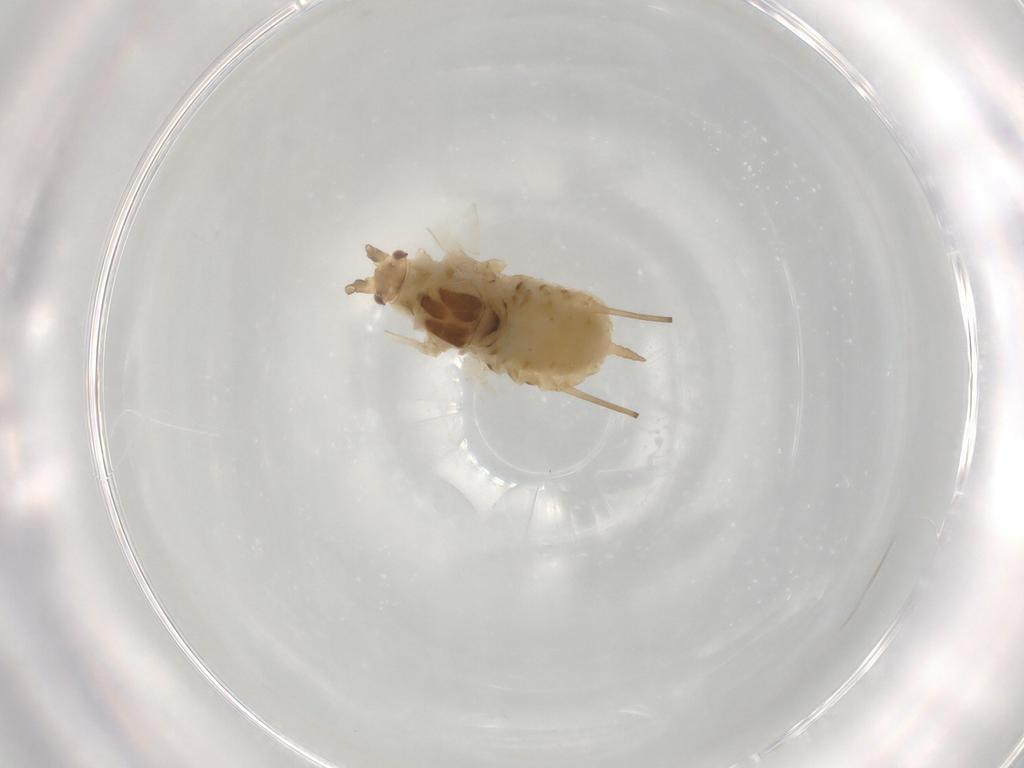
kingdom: Animalia
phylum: Arthropoda
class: Insecta
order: Hemiptera
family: Aphididae
